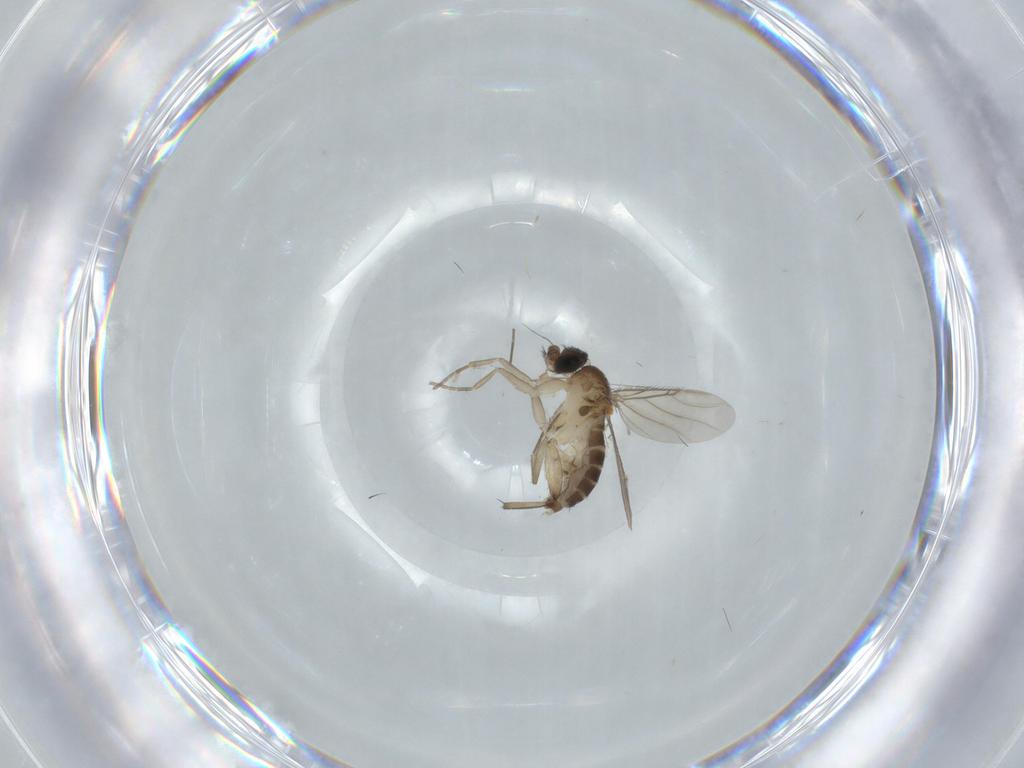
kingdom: Animalia
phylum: Arthropoda
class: Insecta
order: Diptera
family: Phoridae
